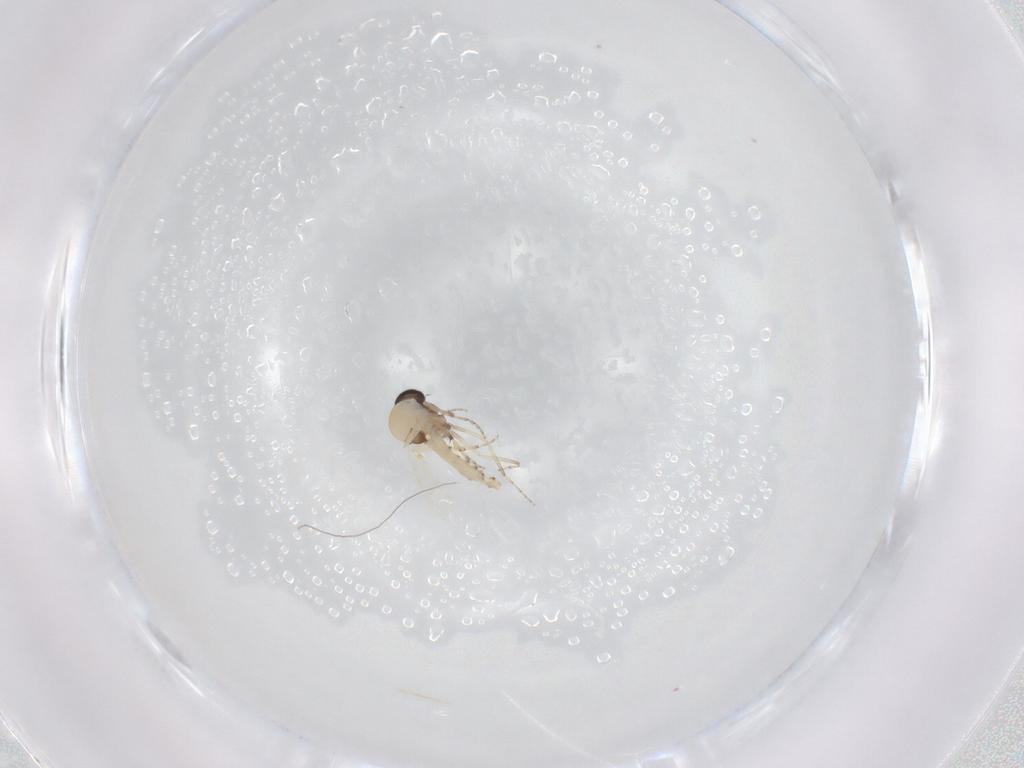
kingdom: Animalia
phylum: Arthropoda
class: Insecta
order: Diptera
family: Ceratopogonidae
